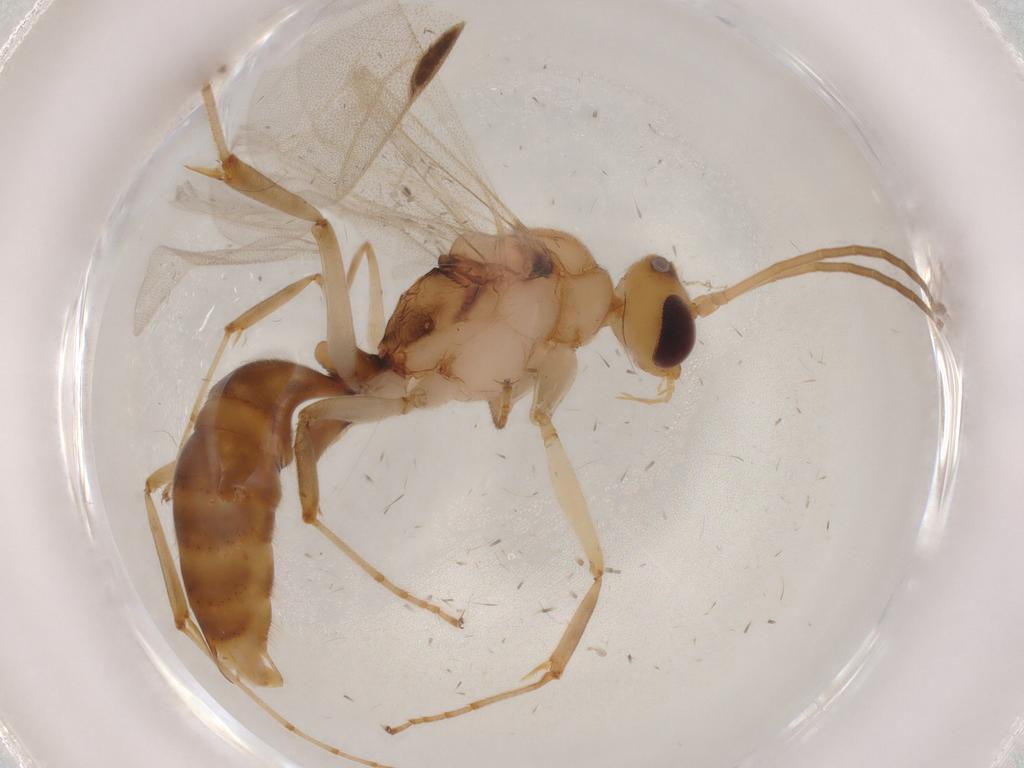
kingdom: Animalia
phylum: Arthropoda
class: Insecta
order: Hymenoptera
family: Formicidae
